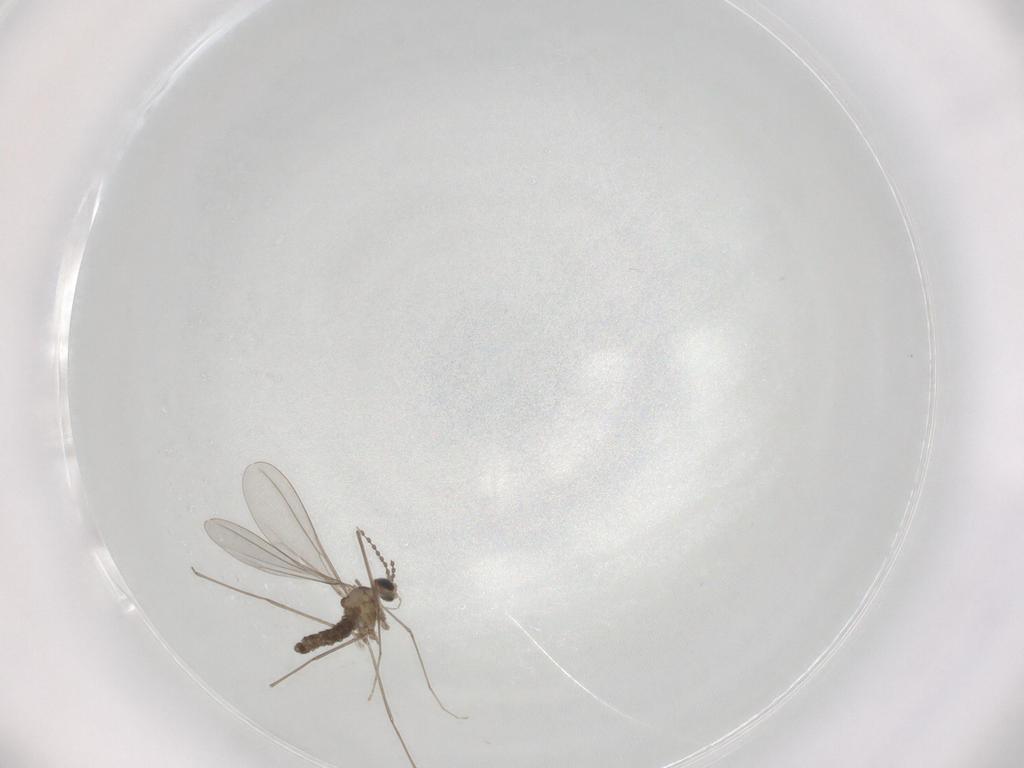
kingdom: Animalia
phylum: Arthropoda
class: Insecta
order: Diptera
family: Cecidomyiidae
